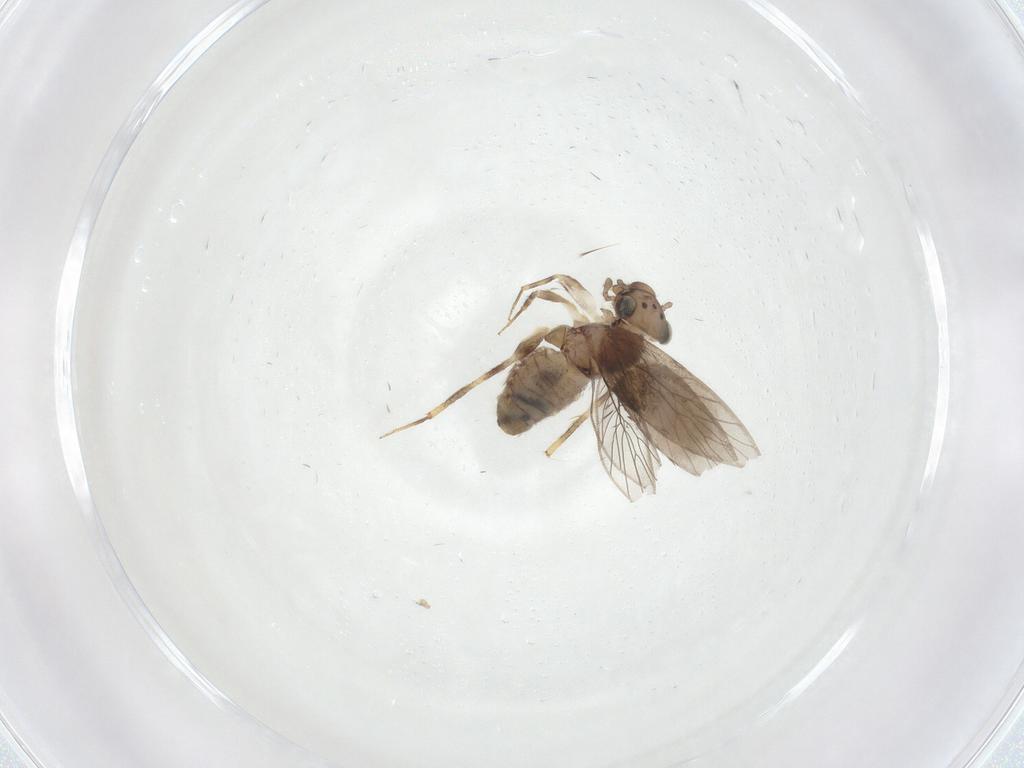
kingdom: Animalia
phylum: Arthropoda
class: Insecta
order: Psocodea
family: Lepidopsocidae
